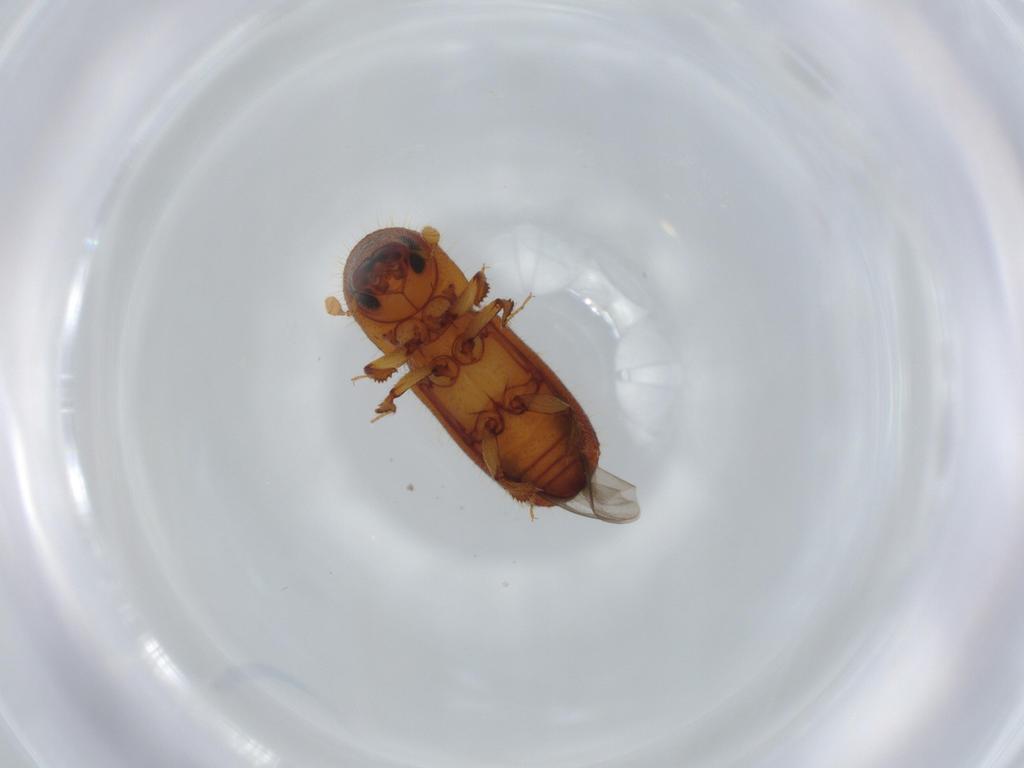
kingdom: Animalia
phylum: Arthropoda
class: Insecta
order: Coleoptera
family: Curculionidae
